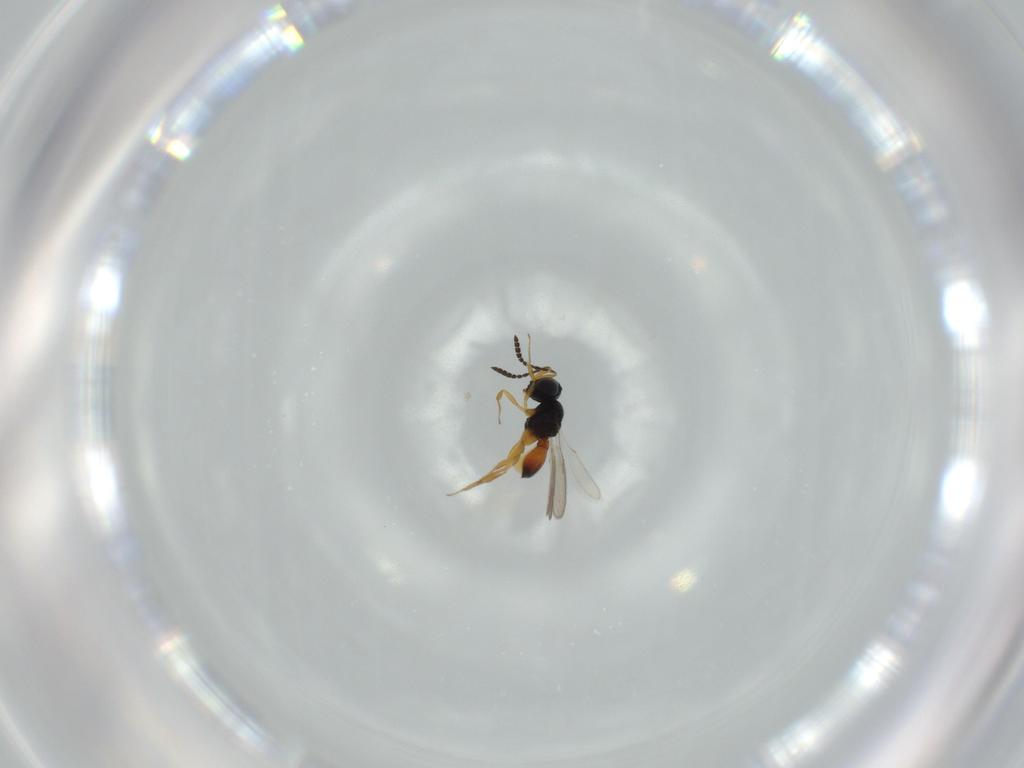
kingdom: Animalia
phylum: Arthropoda
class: Insecta
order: Hymenoptera
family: Scelionidae
